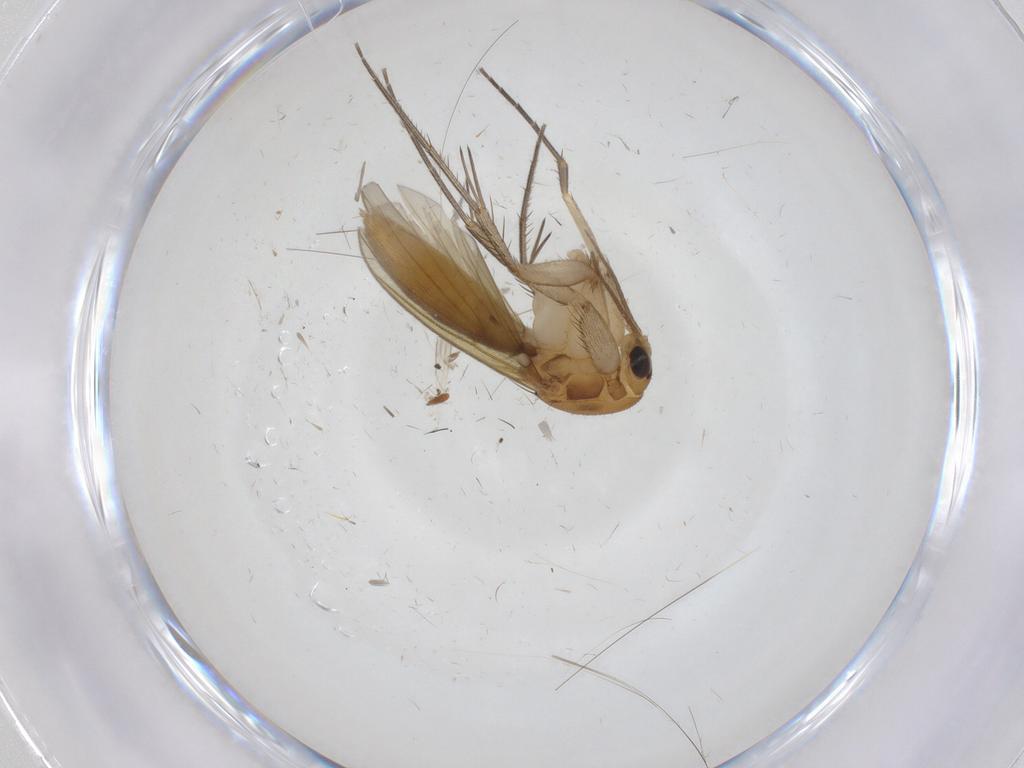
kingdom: Animalia
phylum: Arthropoda
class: Insecta
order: Diptera
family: Mycetophilidae
